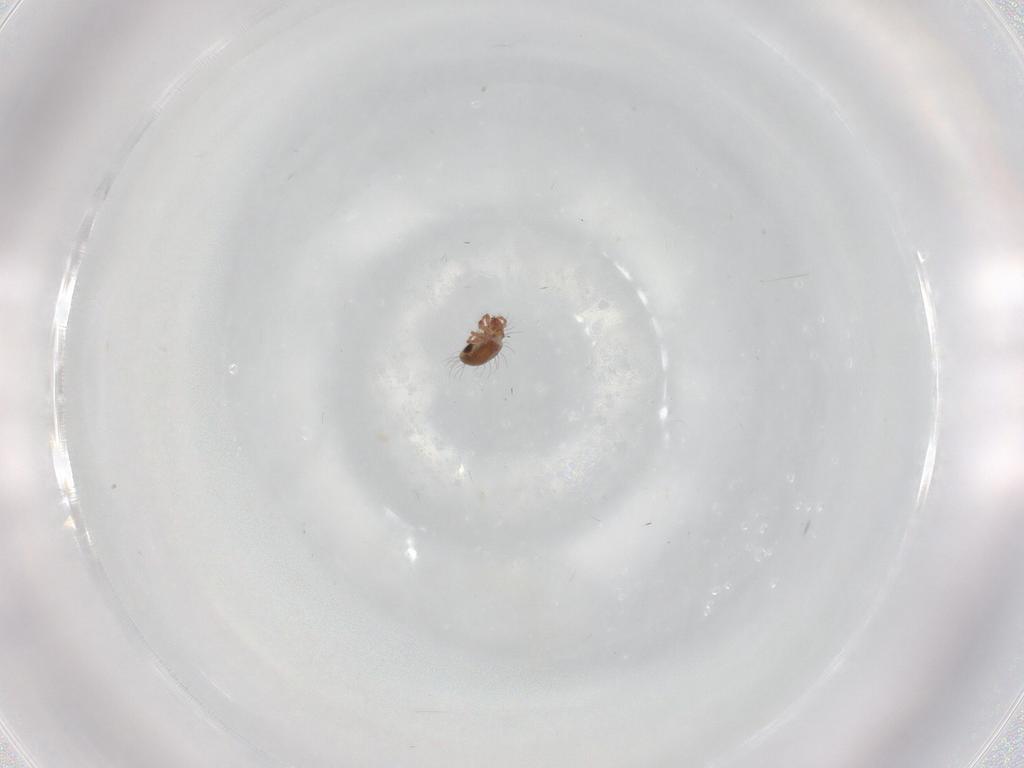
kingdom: Animalia
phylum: Arthropoda
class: Arachnida
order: Sarcoptiformes
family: Humerobatidae
